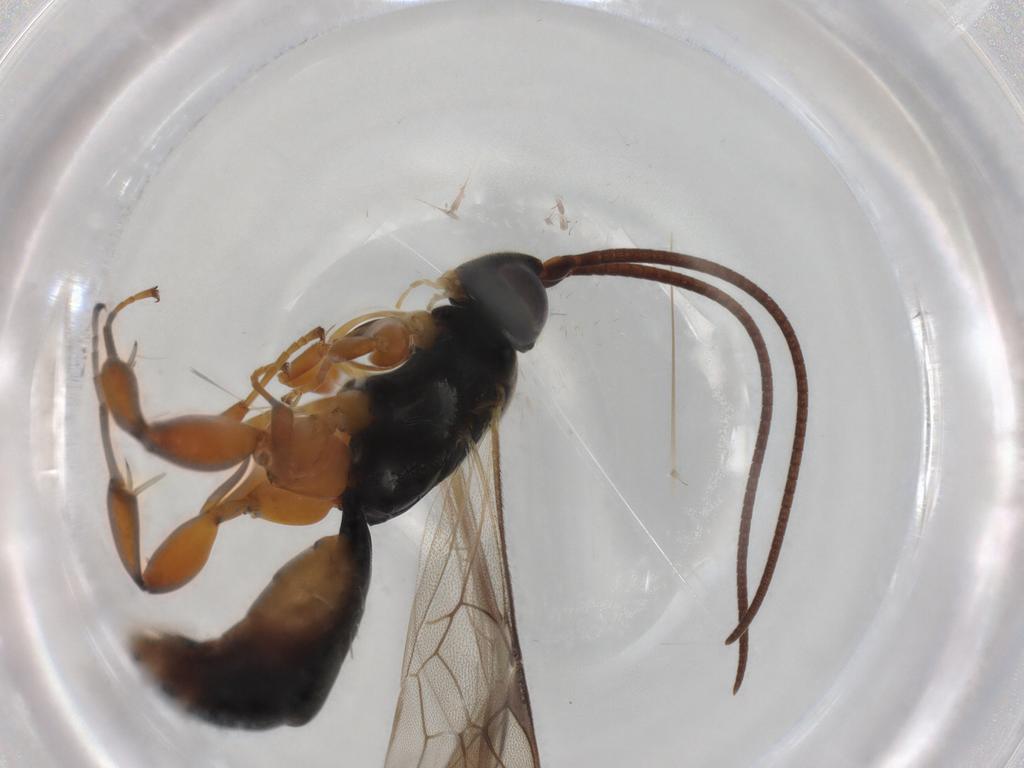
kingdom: Animalia
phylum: Arthropoda
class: Insecta
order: Hymenoptera
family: Ichneumonidae
